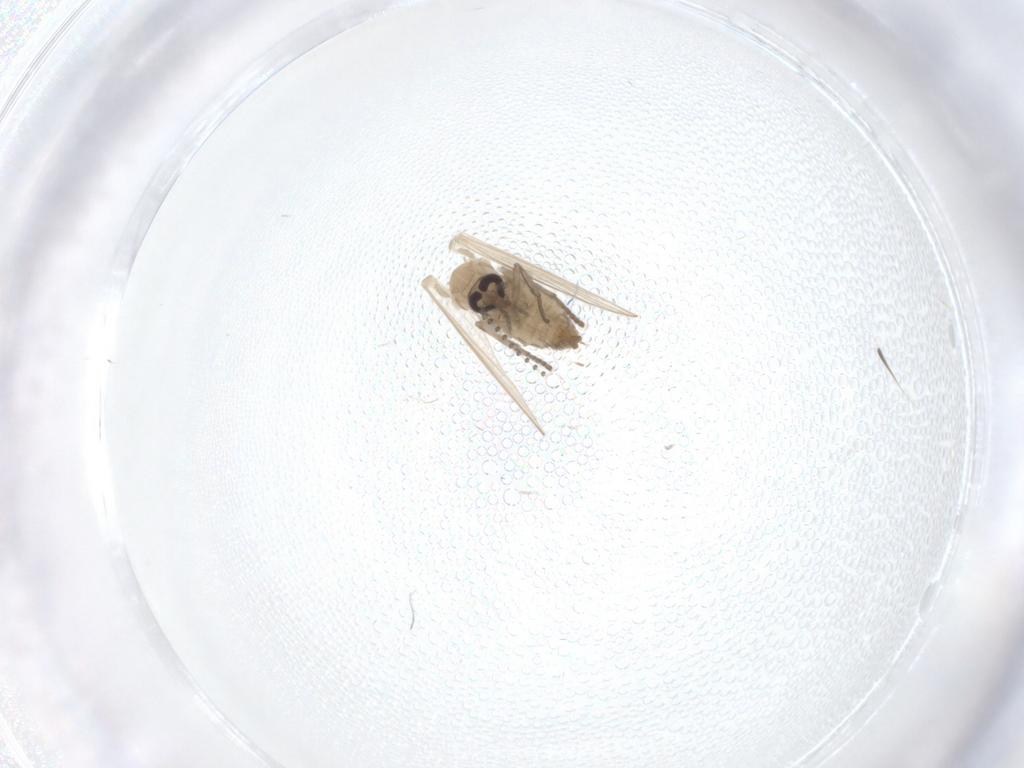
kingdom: Animalia
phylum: Arthropoda
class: Insecta
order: Diptera
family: Psychodidae
